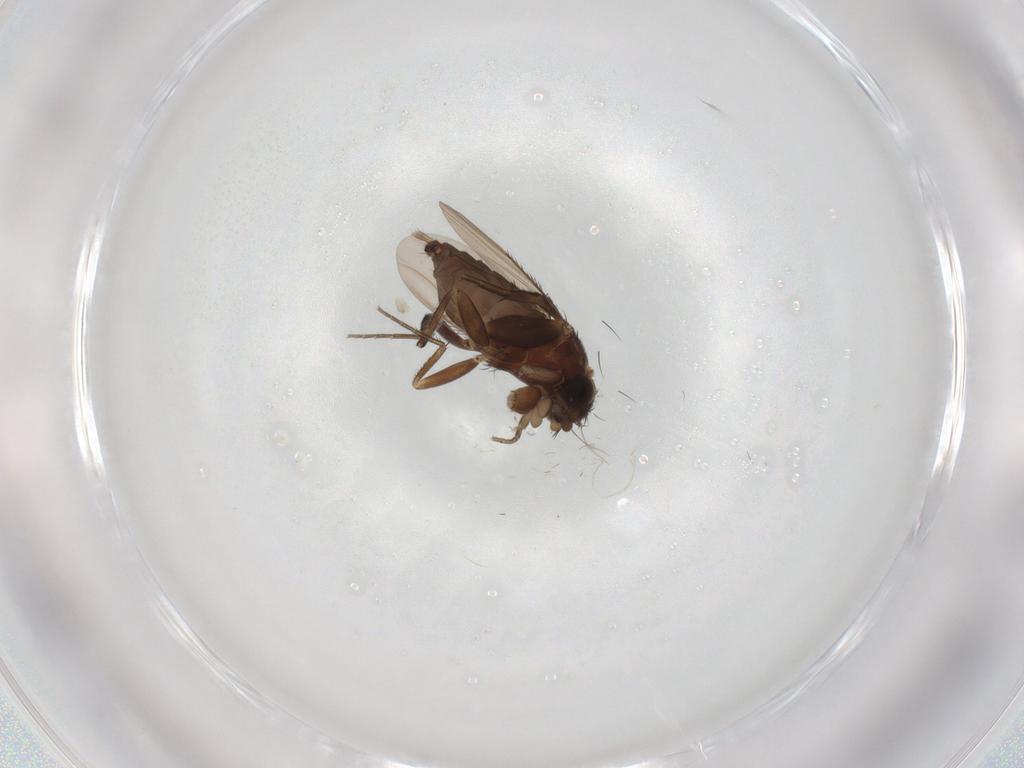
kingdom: Animalia
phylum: Arthropoda
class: Insecta
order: Diptera
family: Phoridae
